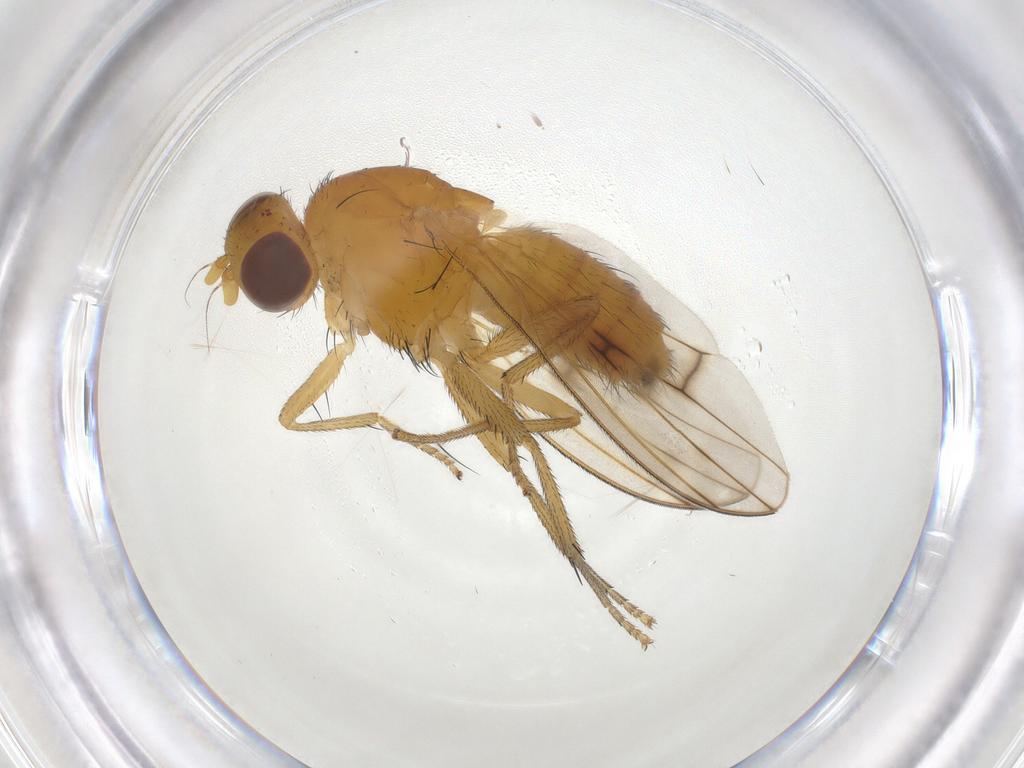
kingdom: Animalia
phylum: Arthropoda
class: Insecta
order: Diptera
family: Lauxaniidae
